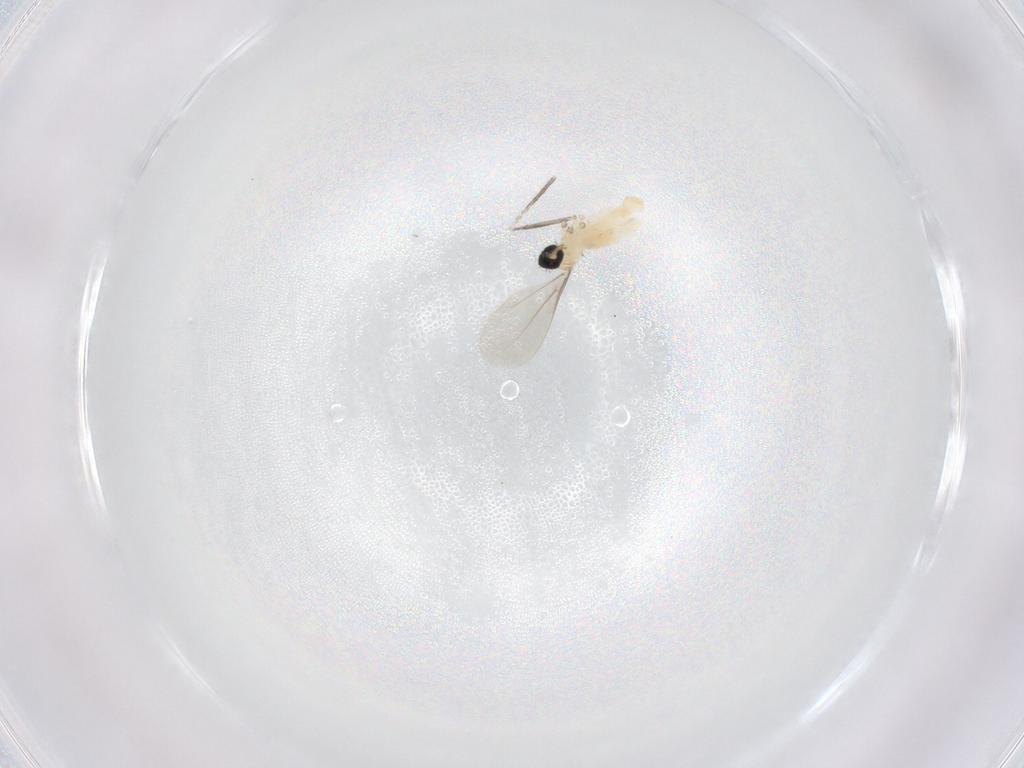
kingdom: Animalia
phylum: Arthropoda
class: Insecta
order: Diptera
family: Cecidomyiidae
